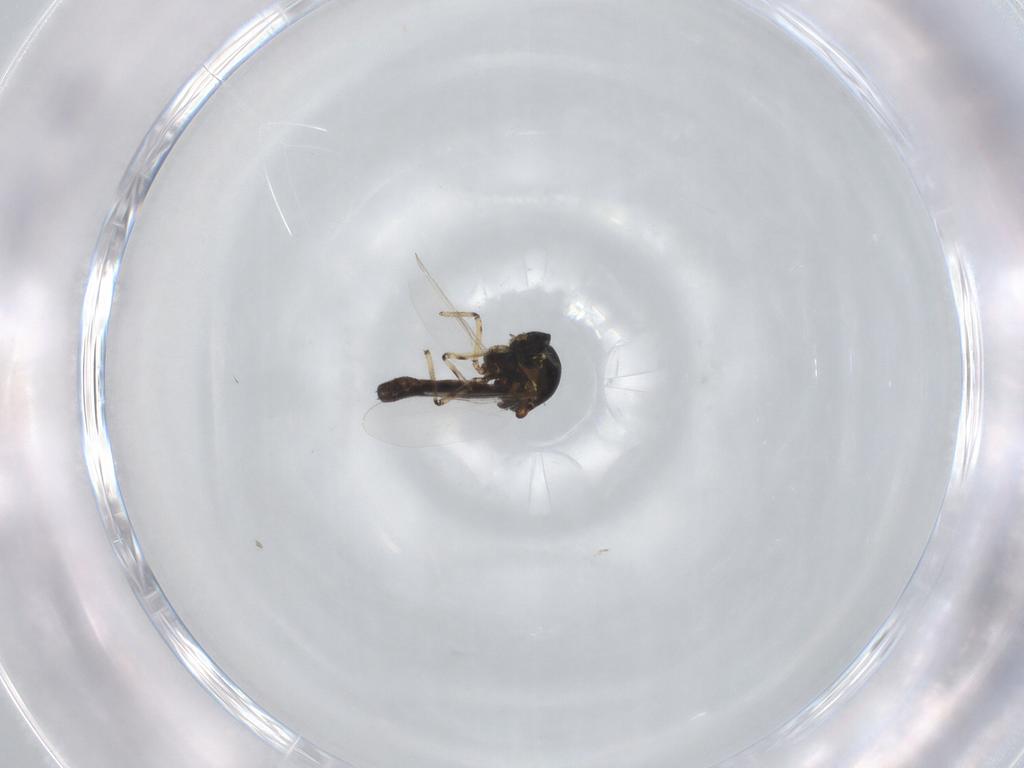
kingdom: Animalia
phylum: Arthropoda
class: Insecta
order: Diptera
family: Ceratopogonidae
